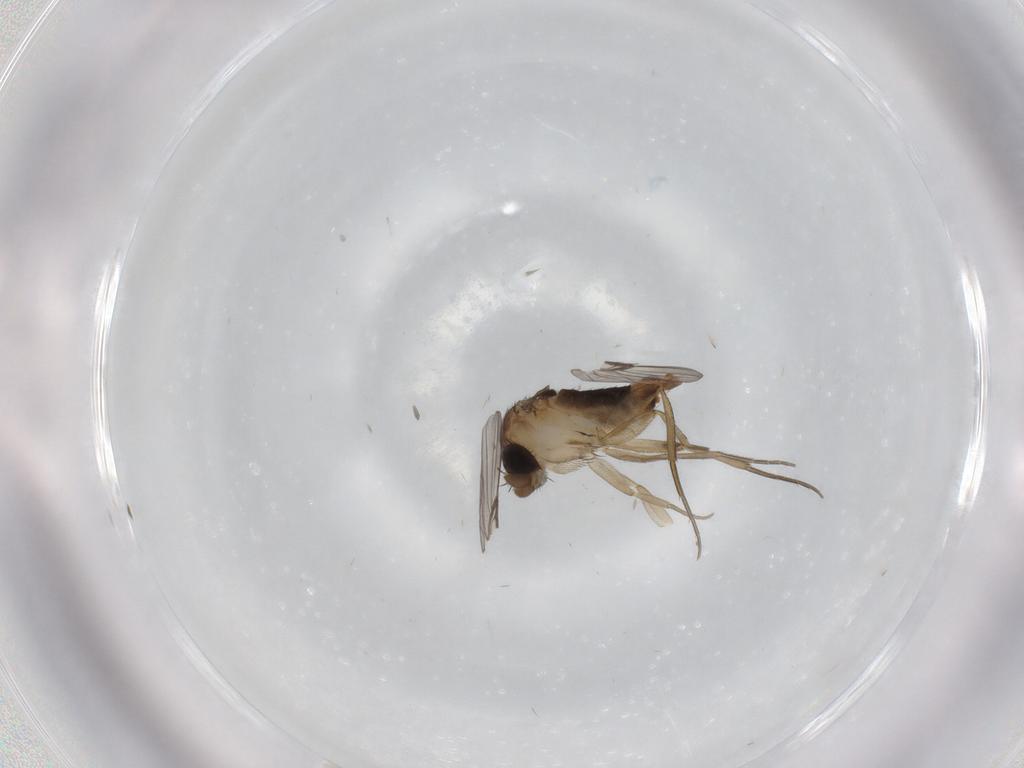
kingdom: Animalia
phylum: Arthropoda
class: Insecta
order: Diptera
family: Phoridae
